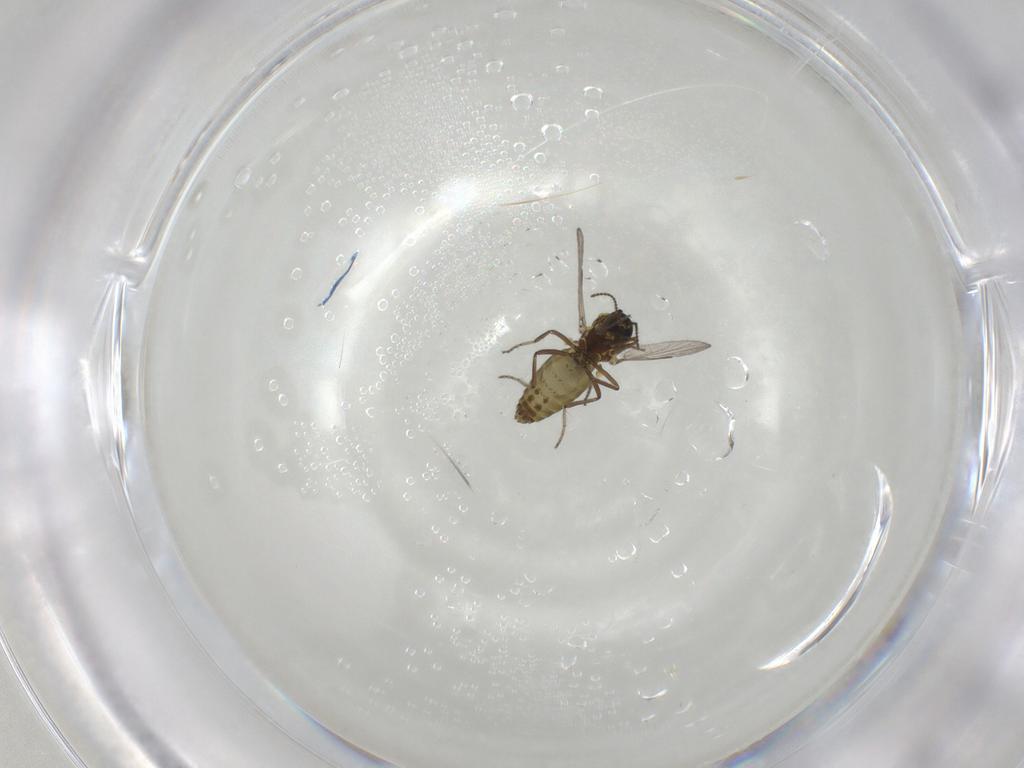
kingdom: Animalia
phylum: Arthropoda
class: Insecta
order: Diptera
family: Ceratopogonidae
